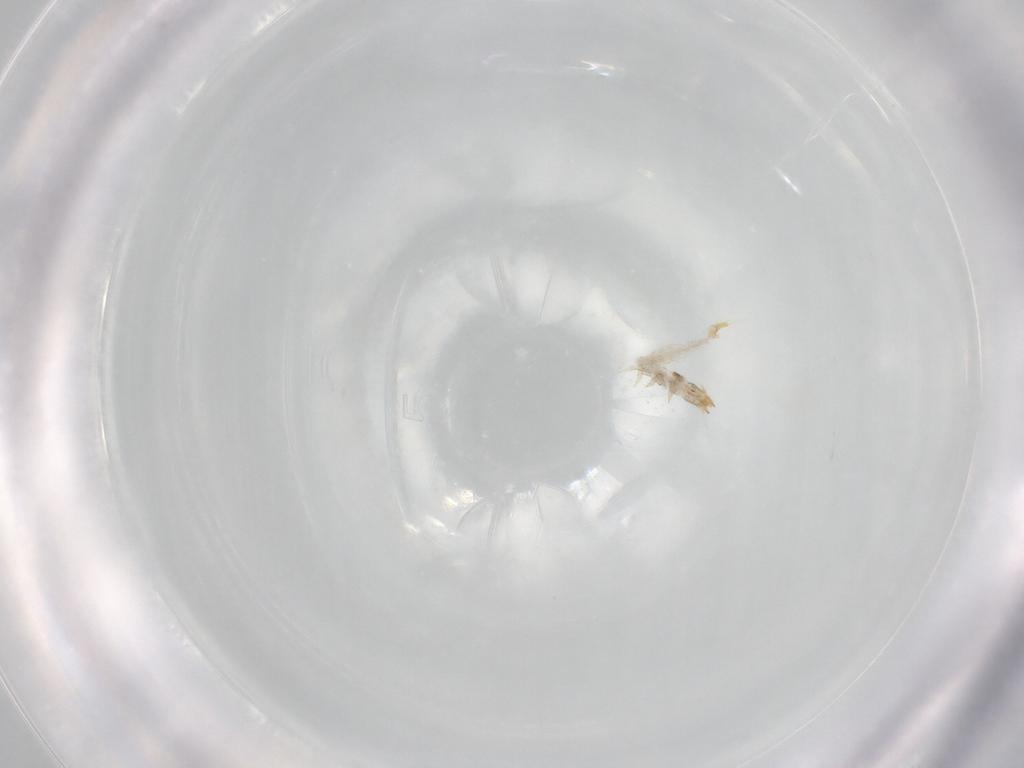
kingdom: Animalia
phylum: Arthropoda
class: Insecta
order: Coleoptera
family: Nitidulidae
